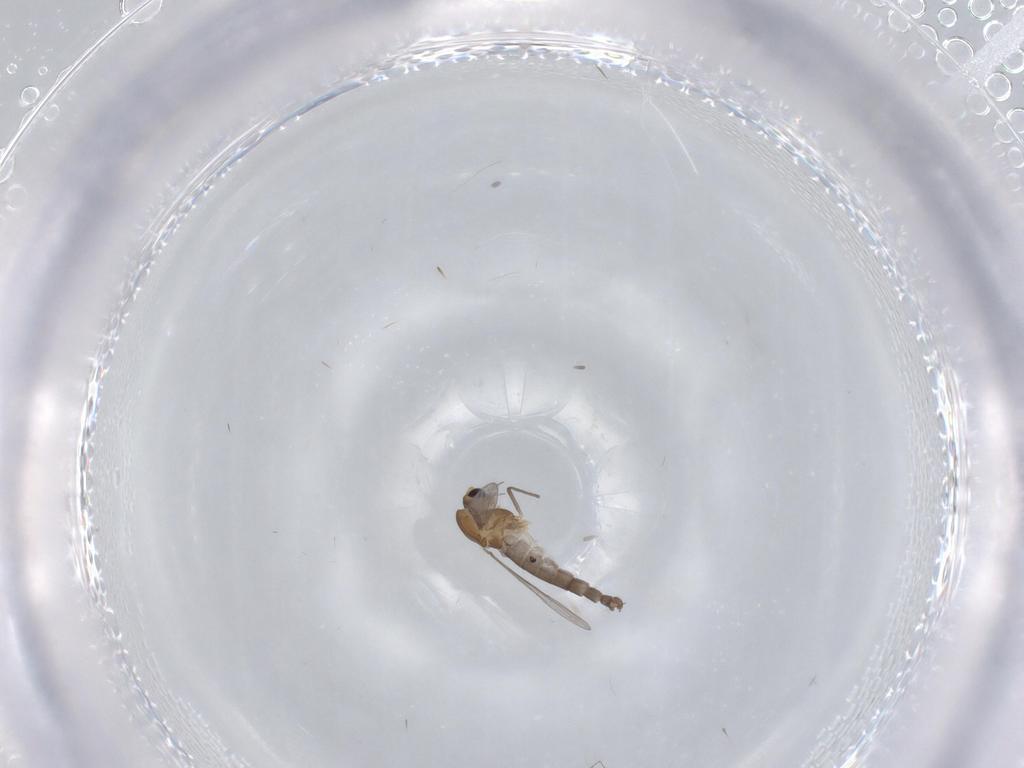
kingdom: Animalia
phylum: Arthropoda
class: Insecta
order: Diptera
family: Chironomidae
